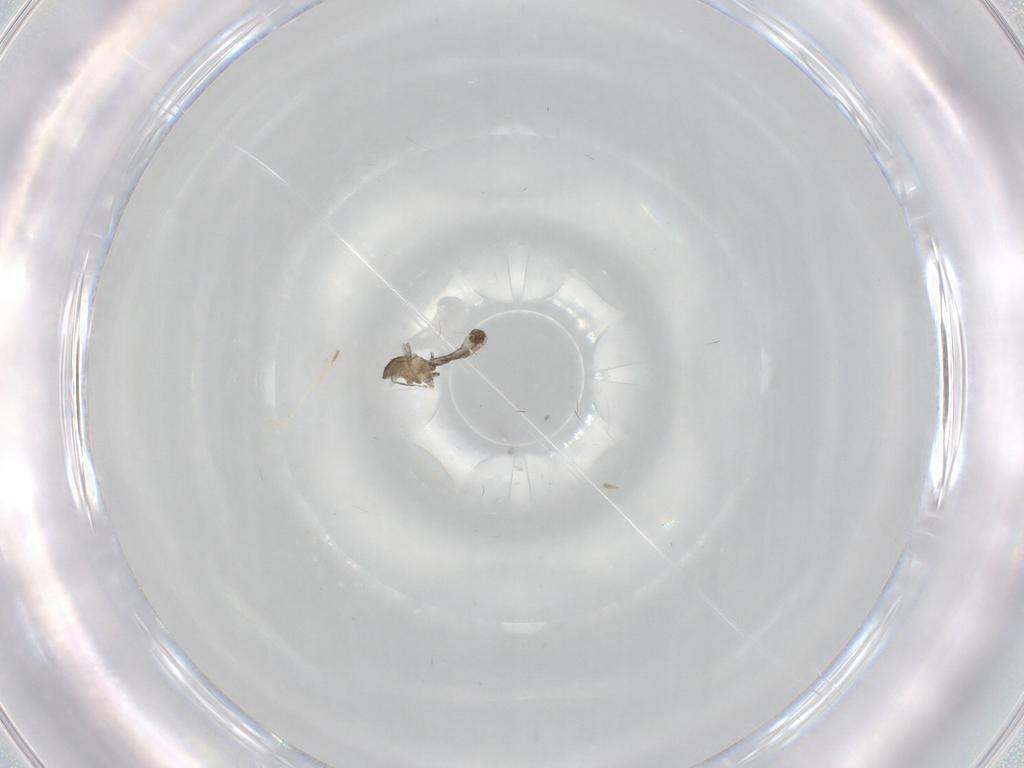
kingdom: Animalia
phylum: Arthropoda
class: Insecta
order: Diptera
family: Cecidomyiidae
